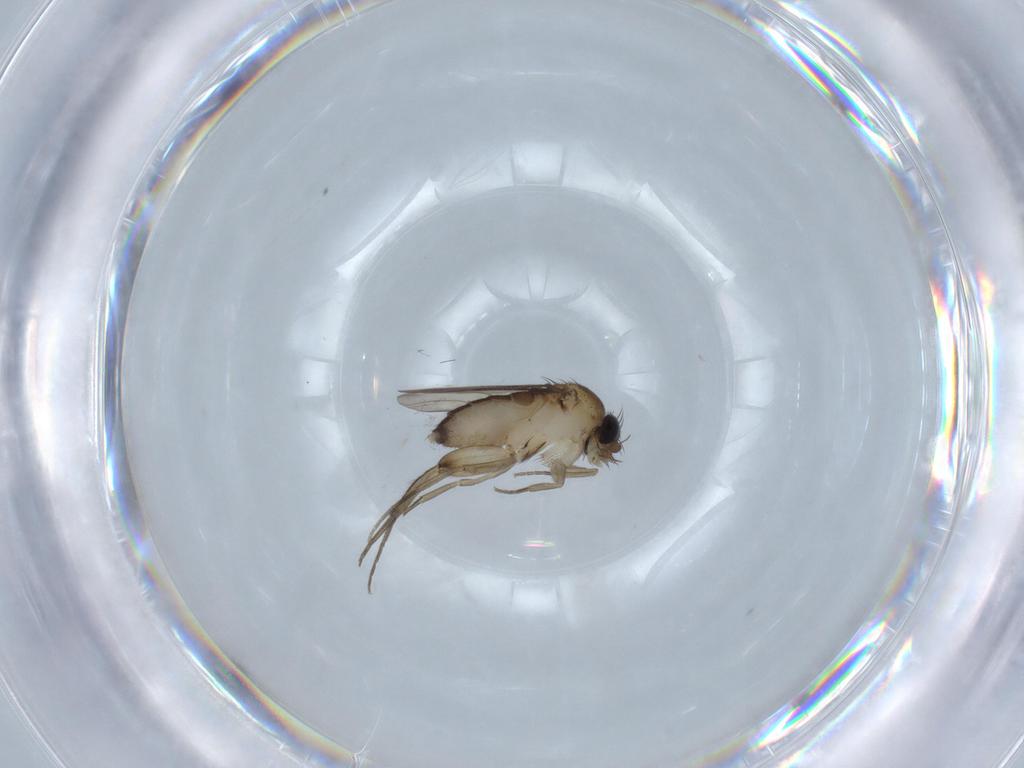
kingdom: Animalia
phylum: Arthropoda
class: Insecta
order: Diptera
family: Phoridae
